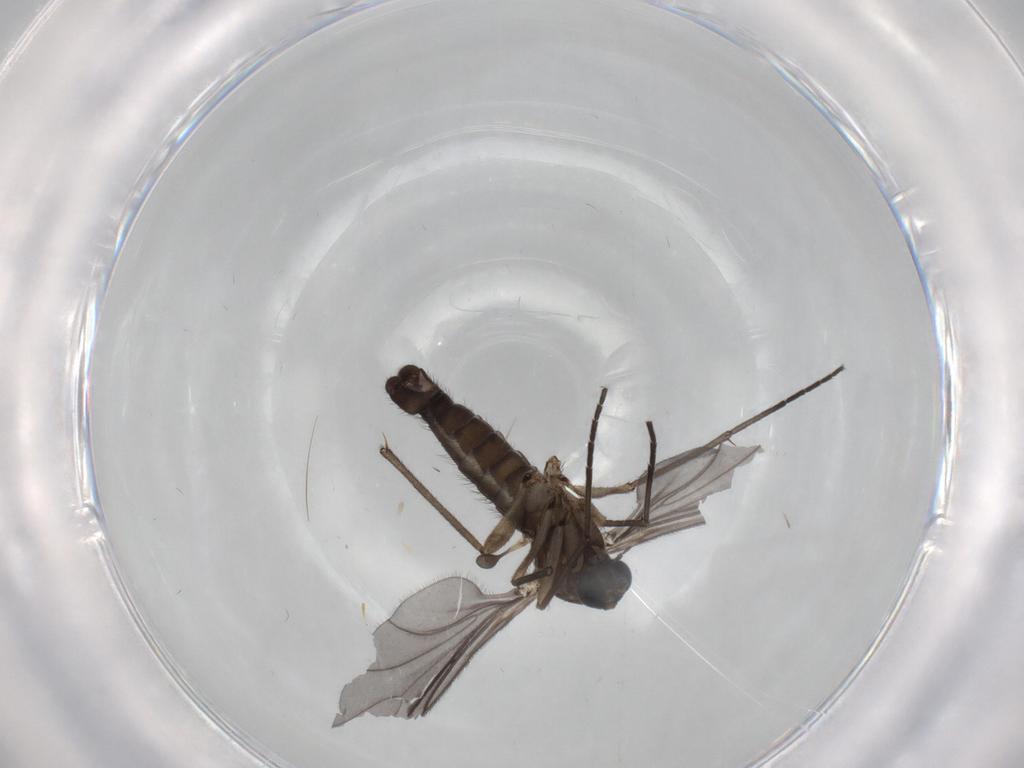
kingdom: Animalia
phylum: Arthropoda
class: Insecta
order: Diptera
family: Sciaridae
